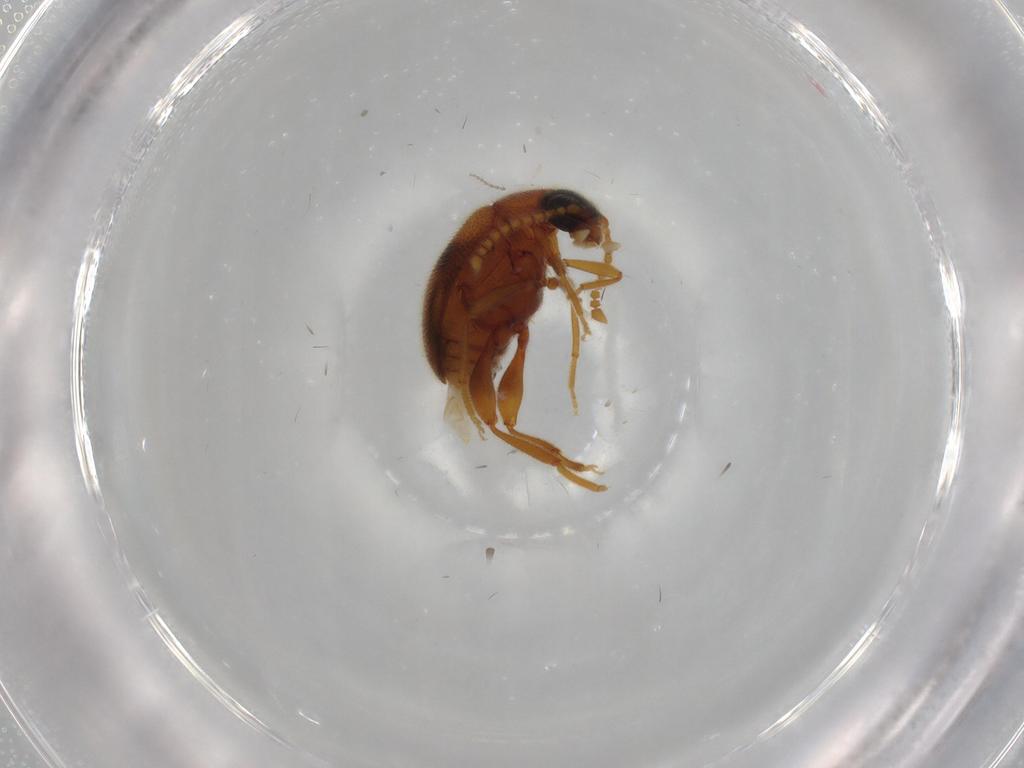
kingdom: Animalia
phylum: Arthropoda
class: Insecta
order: Coleoptera
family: Aderidae
